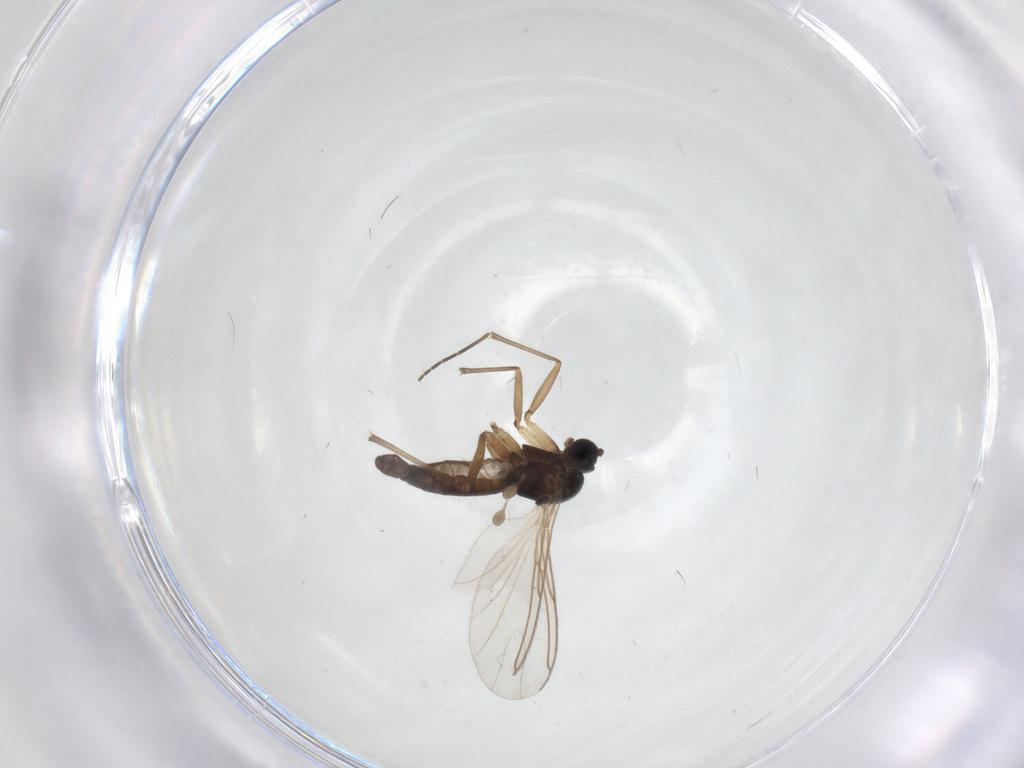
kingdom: Animalia
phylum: Arthropoda
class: Insecta
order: Diptera
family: Sciaridae
